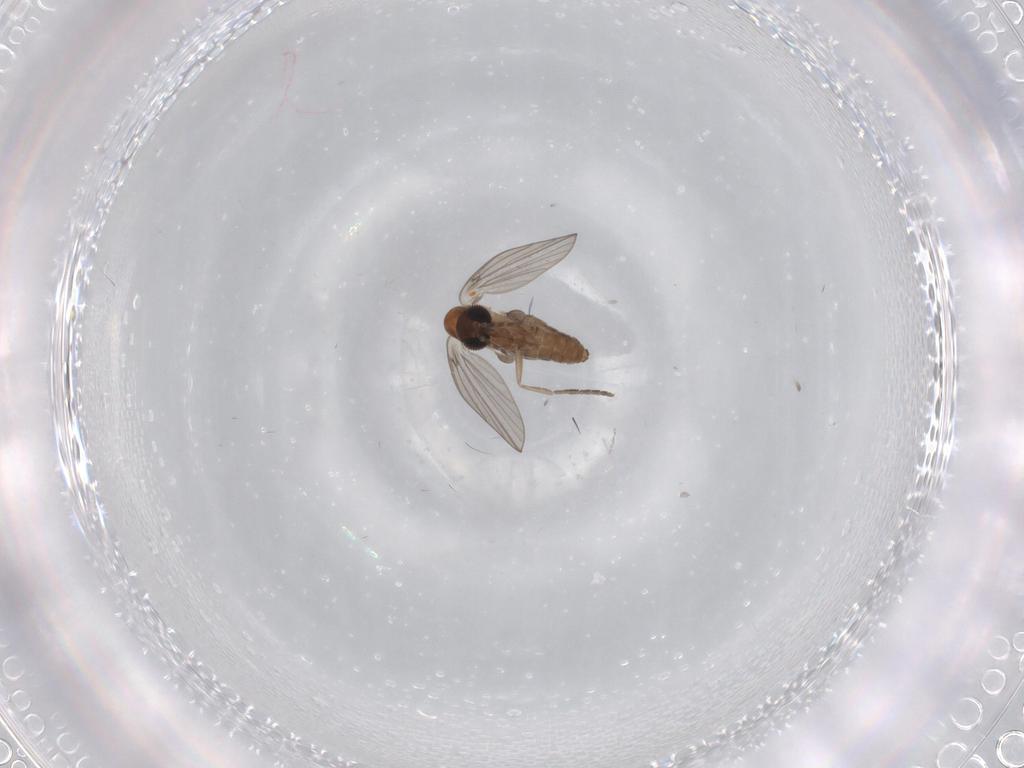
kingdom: Animalia
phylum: Arthropoda
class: Insecta
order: Diptera
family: Psychodidae
